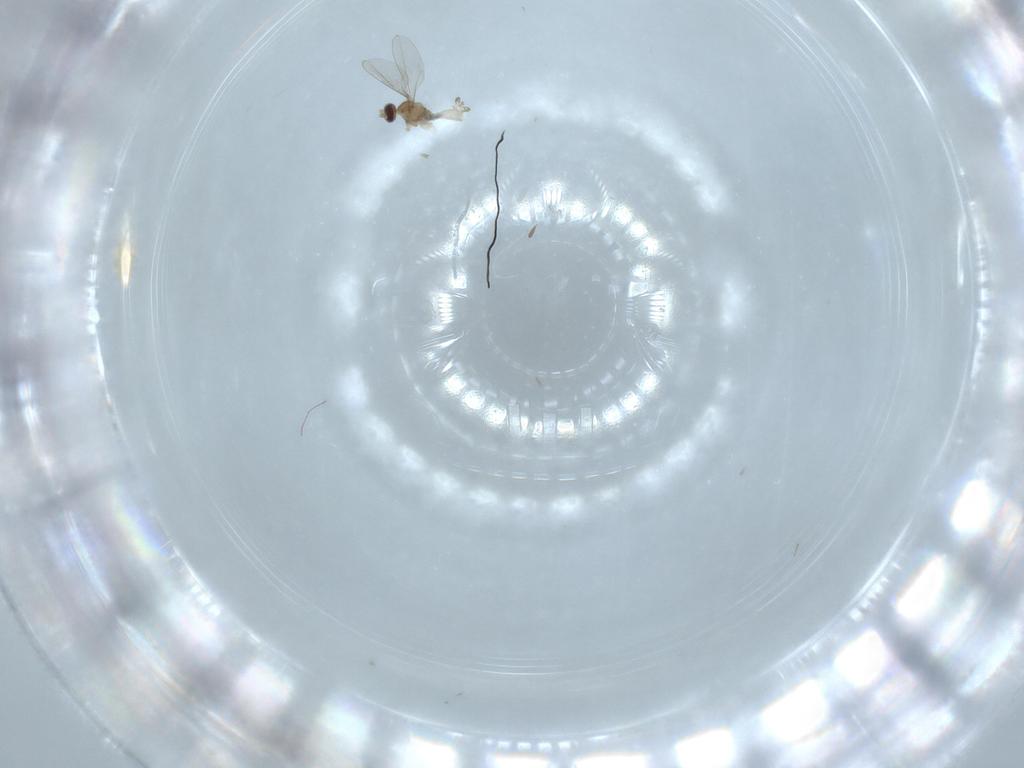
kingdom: Animalia
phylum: Arthropoda
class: Insecta
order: Diptera
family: Cecidomyiidae
